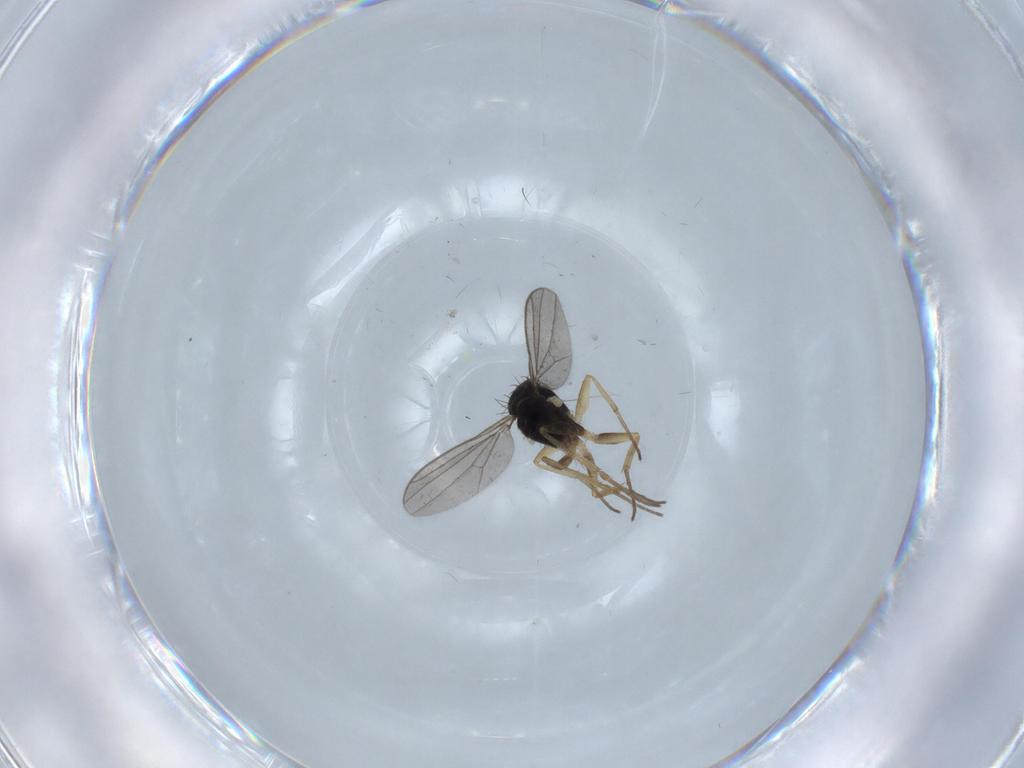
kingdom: Animalia
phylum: Arthropoda
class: Insecta
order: Diptera
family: Dolichopodidae
